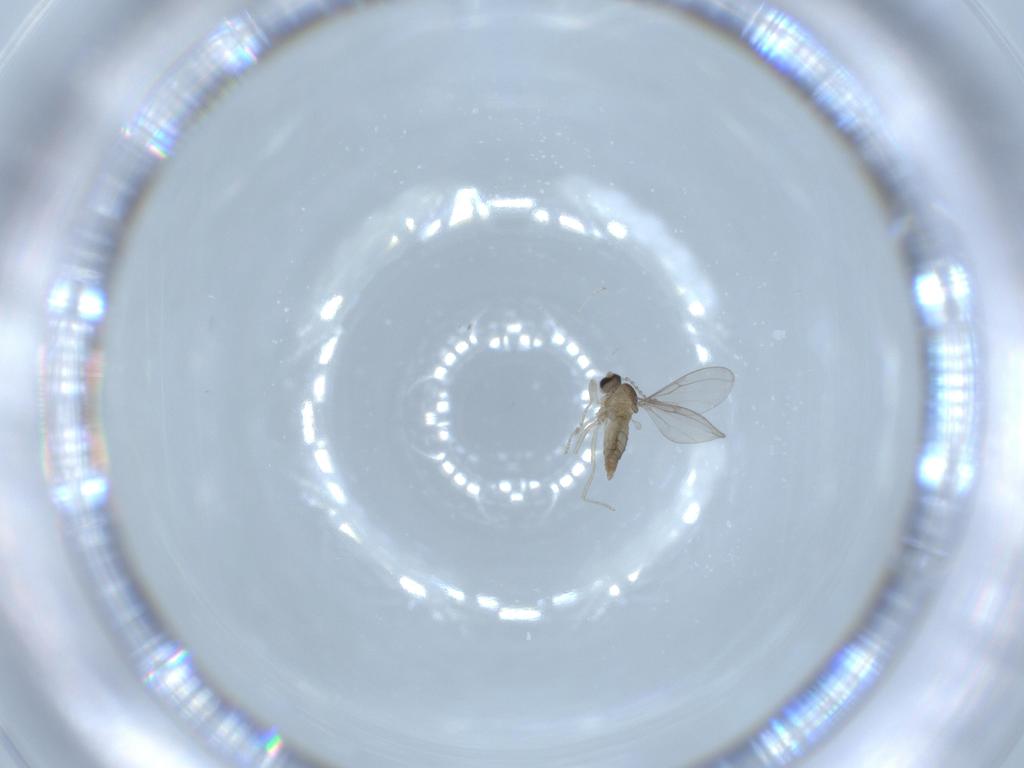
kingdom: Animalia
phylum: Arthropoda
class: Insecta
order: Diptera
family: Cecidomyiidae
